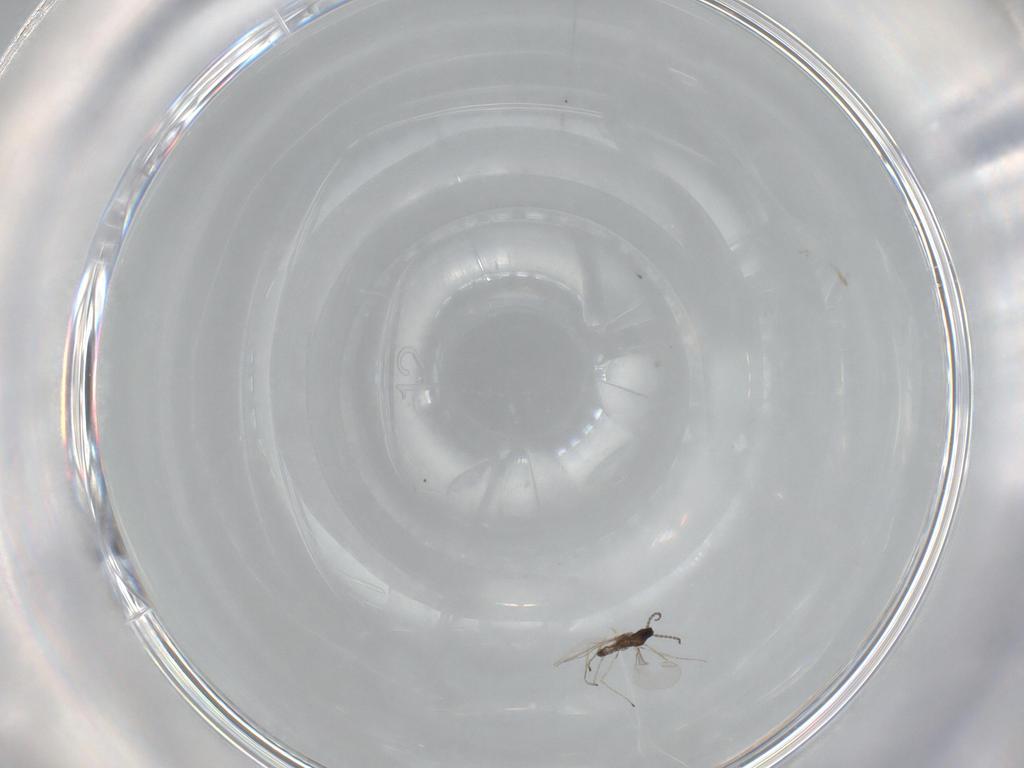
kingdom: Animalia
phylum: Arthropoda
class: Insecta
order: Diptera
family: Cecidomyiidae
